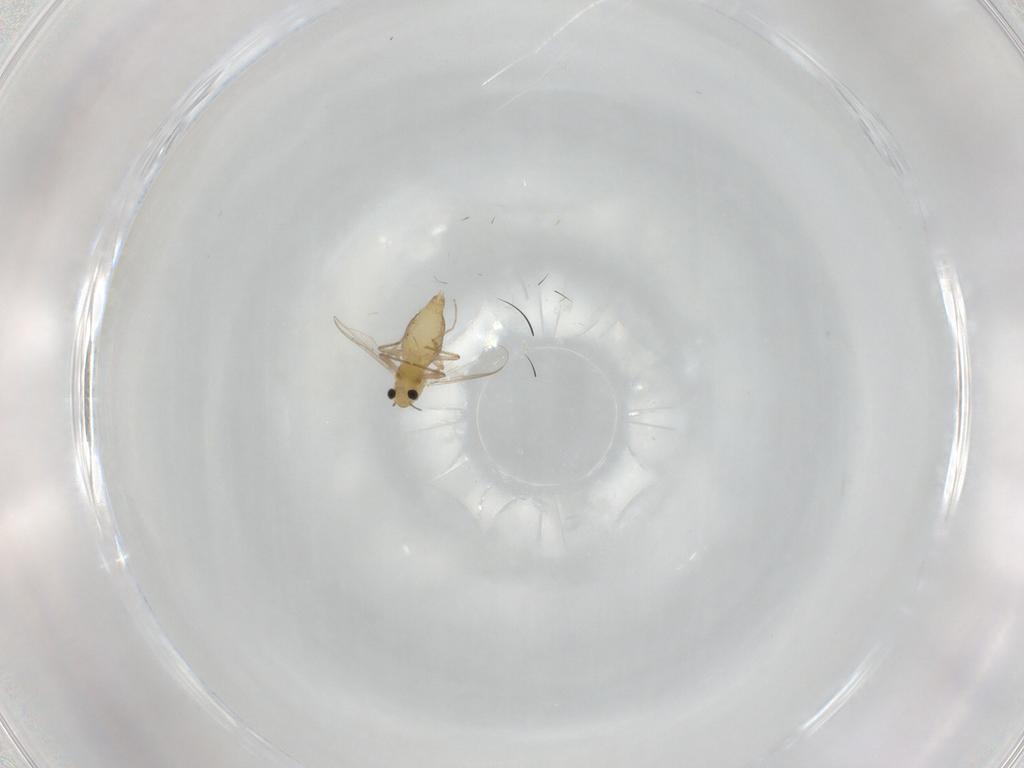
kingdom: Animalia
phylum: Arthropoda
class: Insecta
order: Diptera
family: Chironomidae
